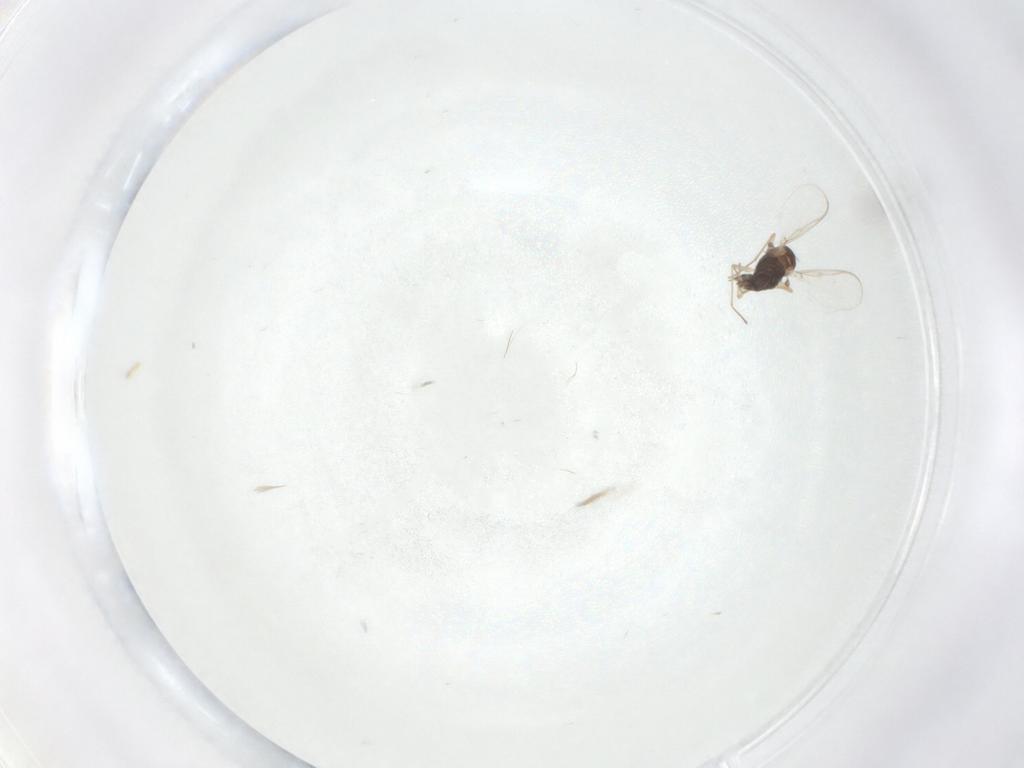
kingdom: Animalia
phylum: Arthropoda
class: Insecta
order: Diptera
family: Chironomidae
